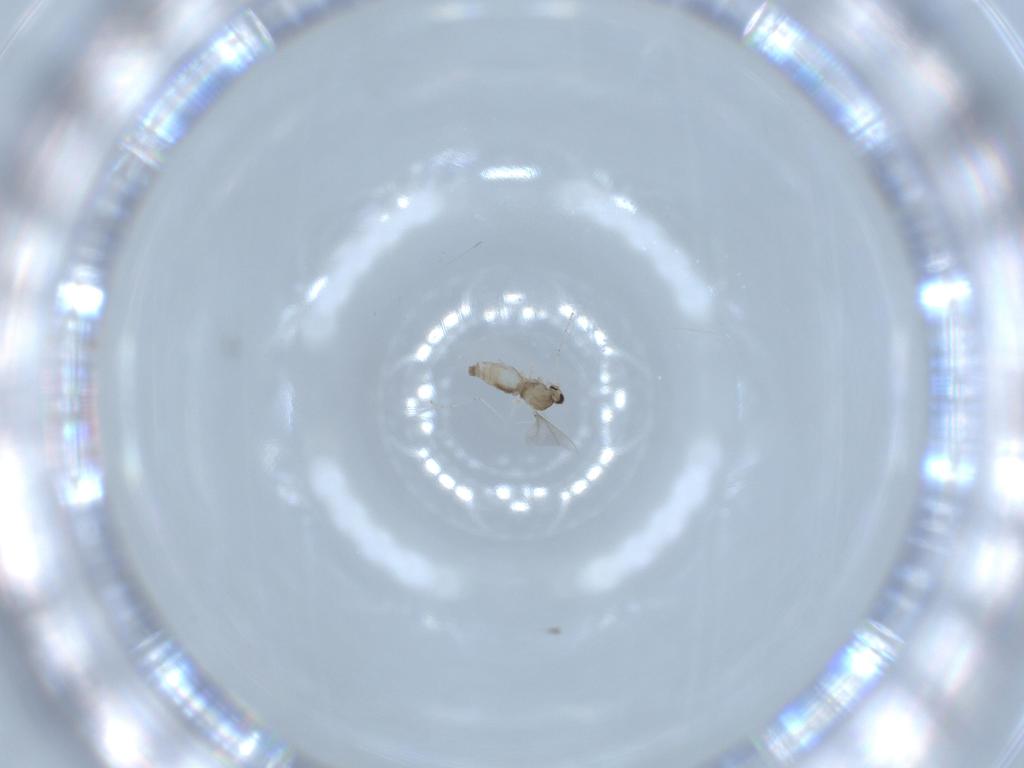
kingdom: Animalia
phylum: Arthropoda
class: Insecta
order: Diptera
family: Cecidomyiidae
